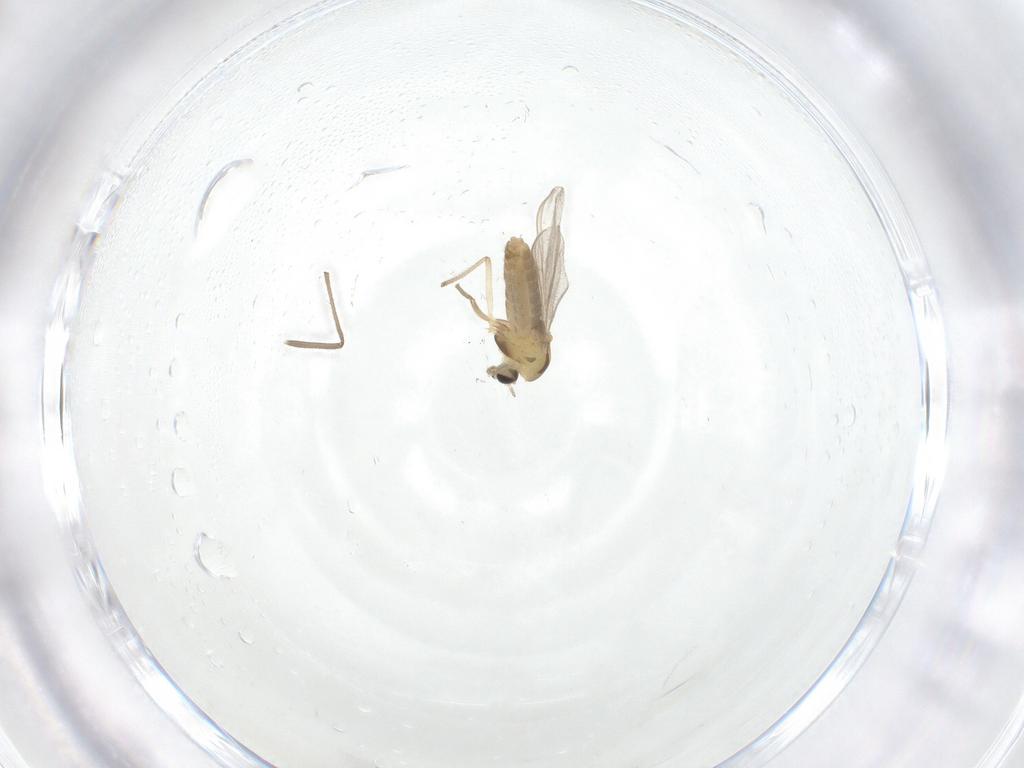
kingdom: Animalia
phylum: Arthropoda
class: Insecta
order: Diptera
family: Chironomidae
